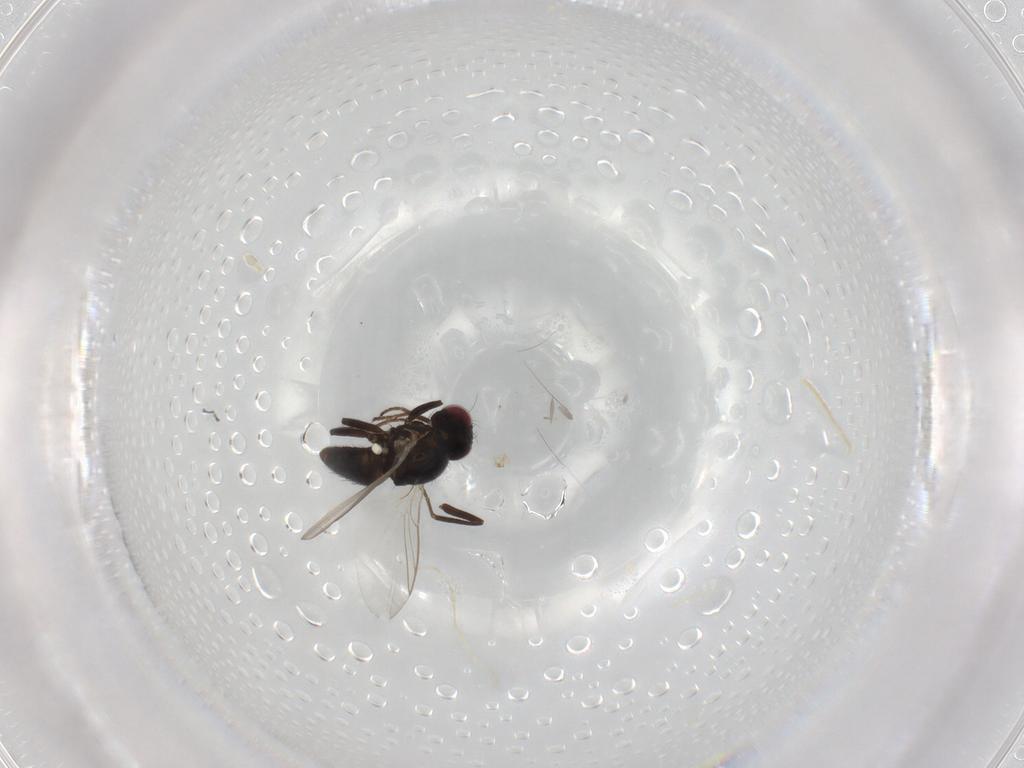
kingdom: Animalia
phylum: Arthropoda
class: Insecta
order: Diptera
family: Agromyzidae
